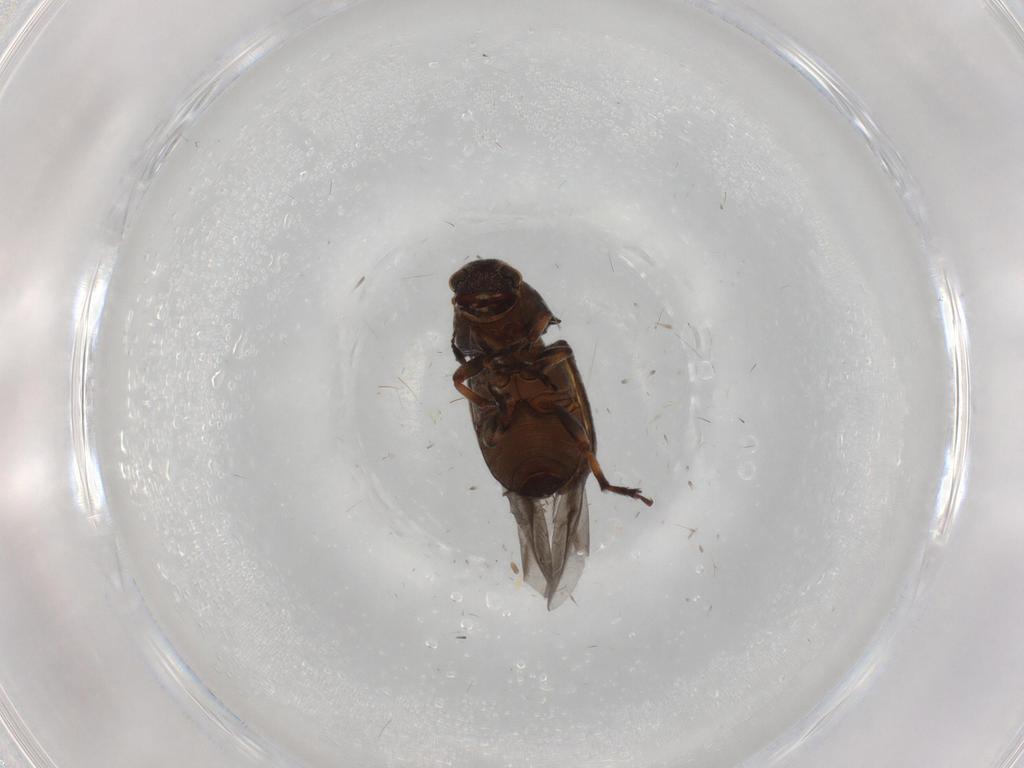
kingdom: Animalia
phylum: Arthropoda
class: Insecta
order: Coleoptera
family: Anthribidae
